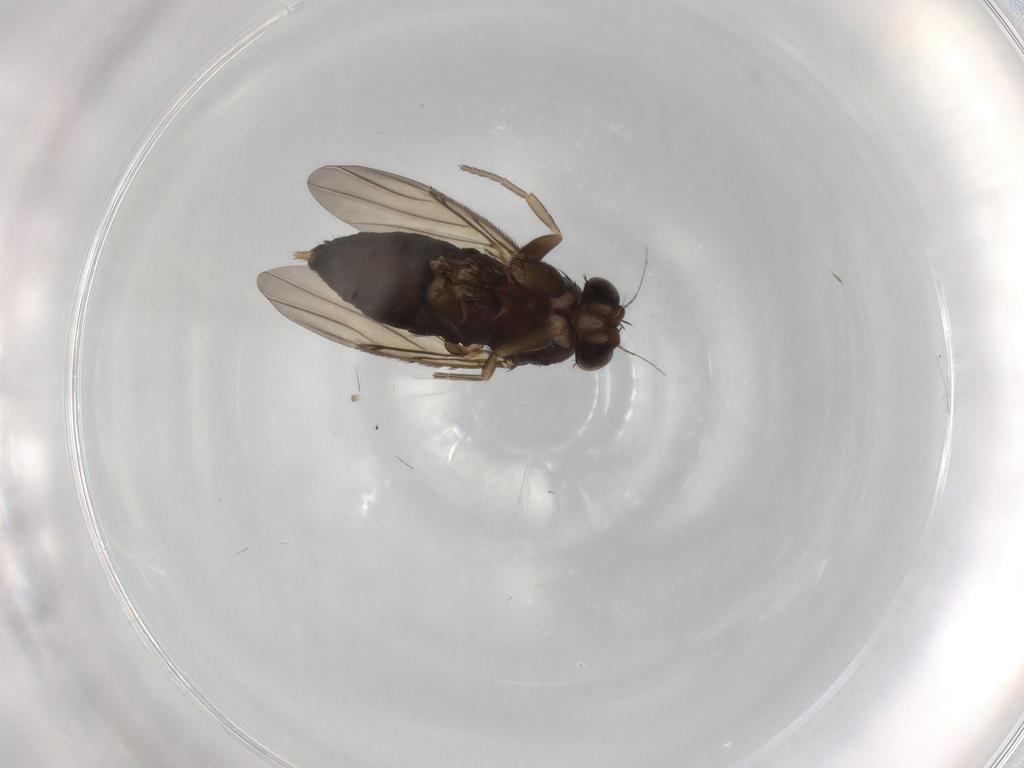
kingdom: Animalia
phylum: Arthropoda
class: Insecta
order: Diptera
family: Phoridae
